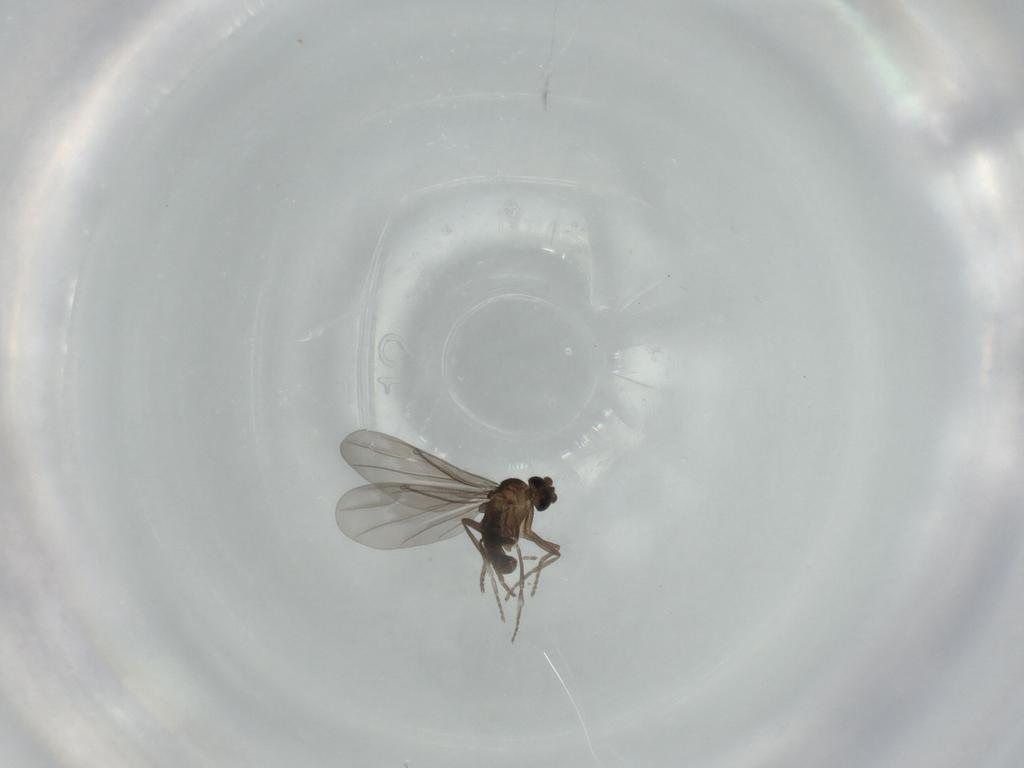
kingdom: Animalia
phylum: Arthropoda
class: Insecta
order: Diptera
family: Phoridae
